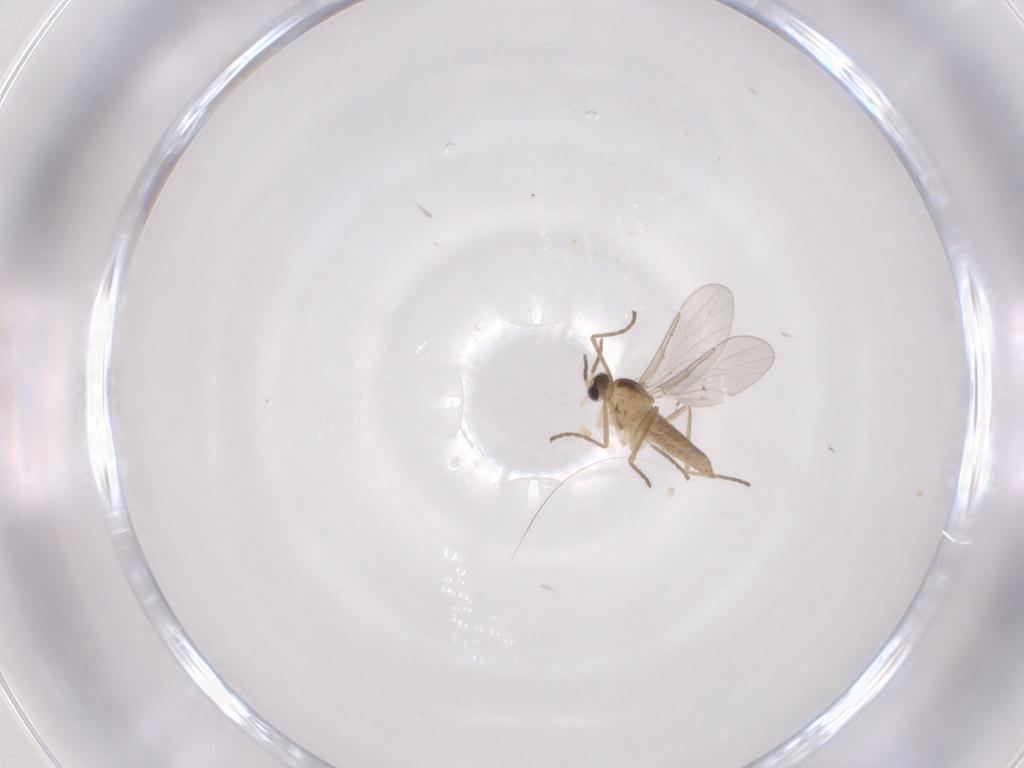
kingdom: Animalia
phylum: Arthropoda
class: Insecta
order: Diptera
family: Cecidomyiidae
